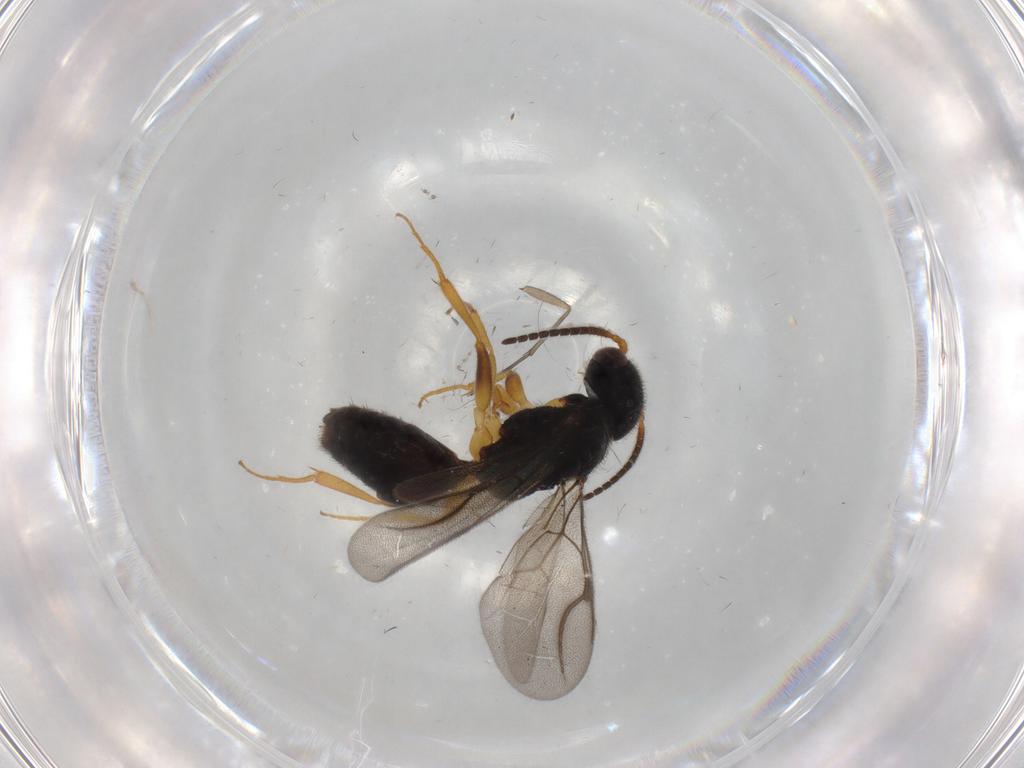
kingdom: Animalia
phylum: Arthropoda
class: Insecta
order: Hymenoptera
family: Bethylidae
